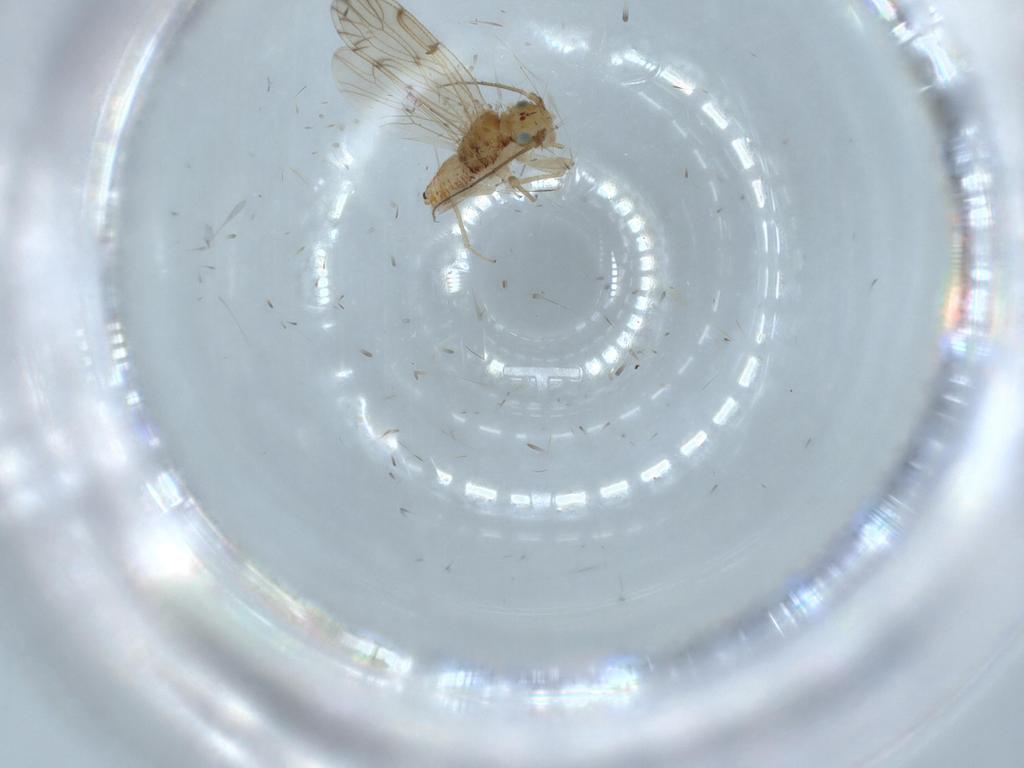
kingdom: Animalia
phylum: Arthropoda
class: Insecta
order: Psocodea
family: Ectopsocidae
